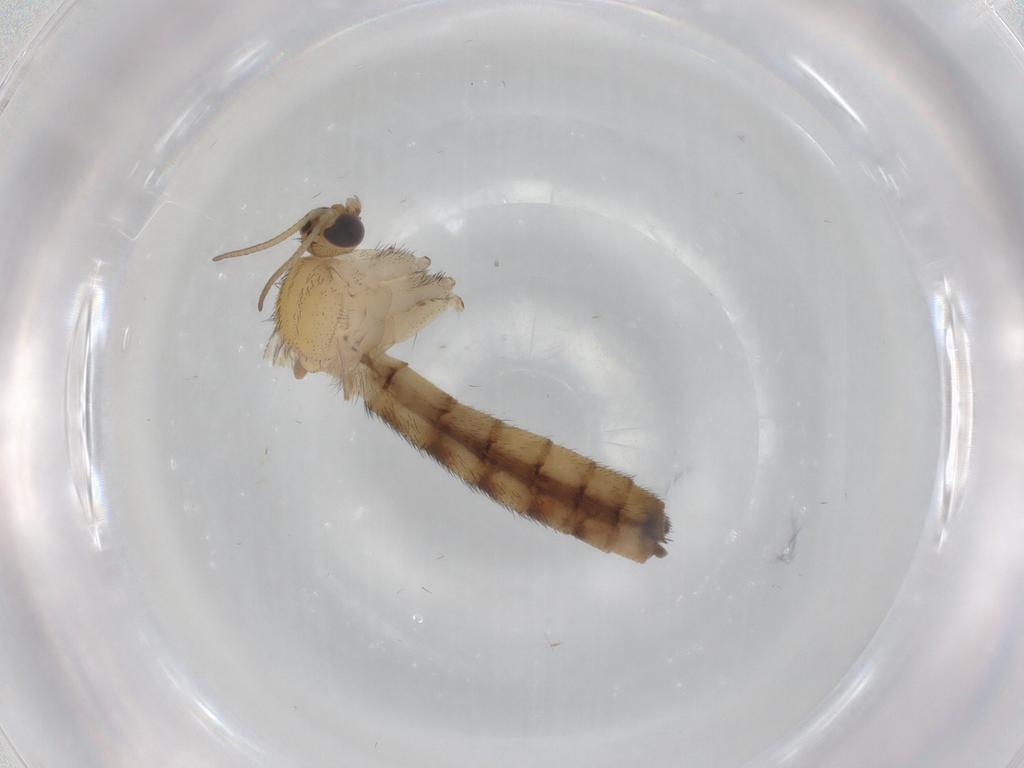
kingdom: Animalia
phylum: Arthropoda
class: Insecta
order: Diptera
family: Keroplatidae
